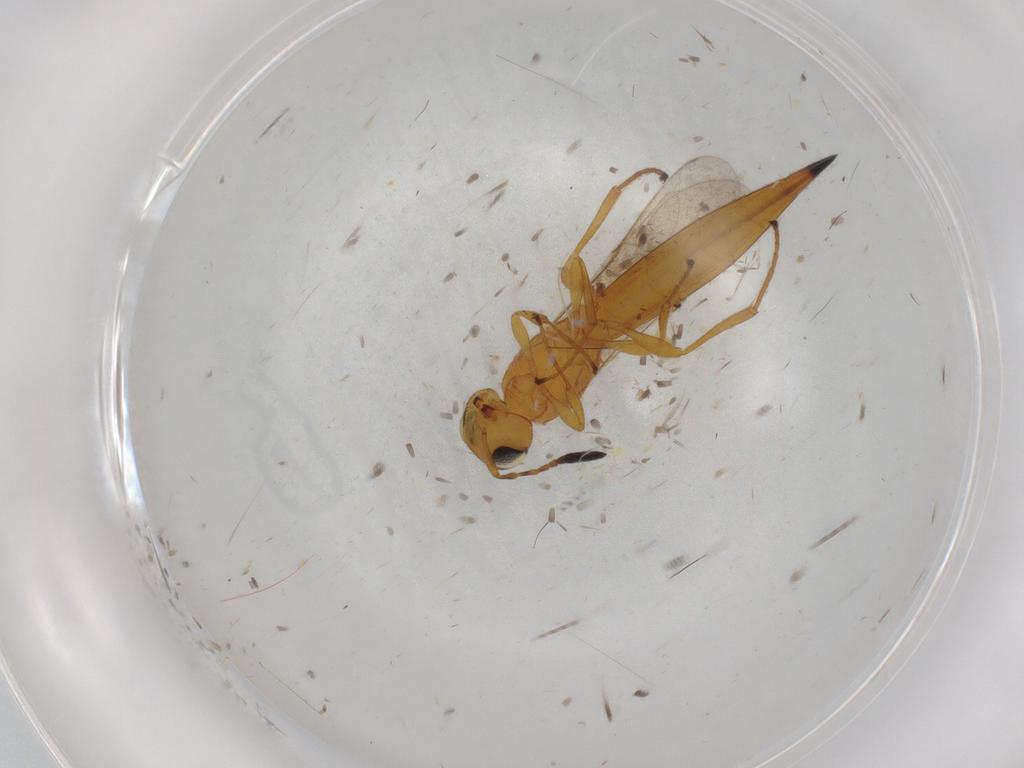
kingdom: Animalia
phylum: Arthropoda
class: Insecta
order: Hymenoptera
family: Scelionidae
